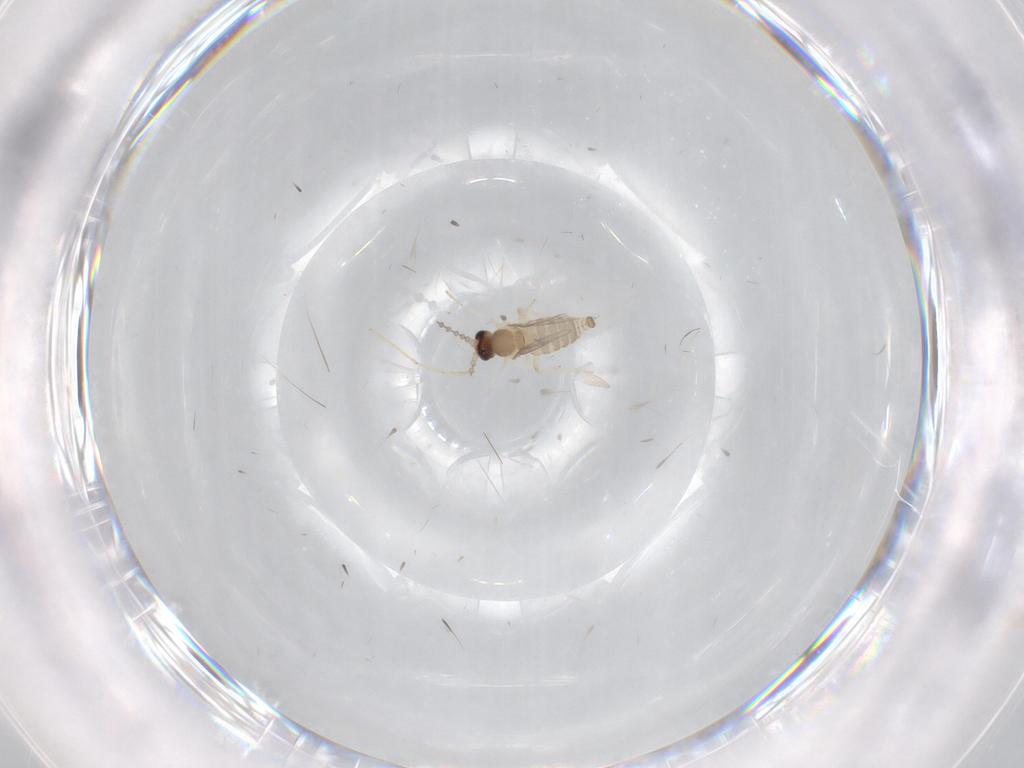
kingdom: Animalia
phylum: Arthropoda
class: Insecta
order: Diptera
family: Cecidomyiidae
